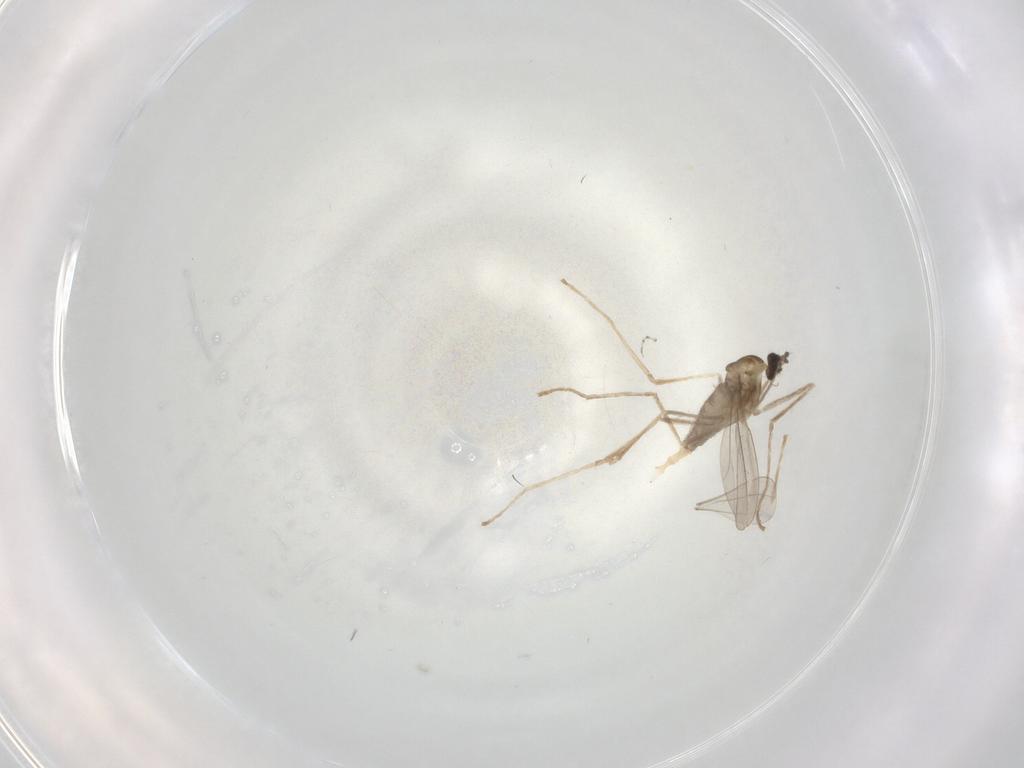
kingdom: Animalia
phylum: Arthropoda
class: Insecta
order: Diptera
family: Cecidomyiidae
